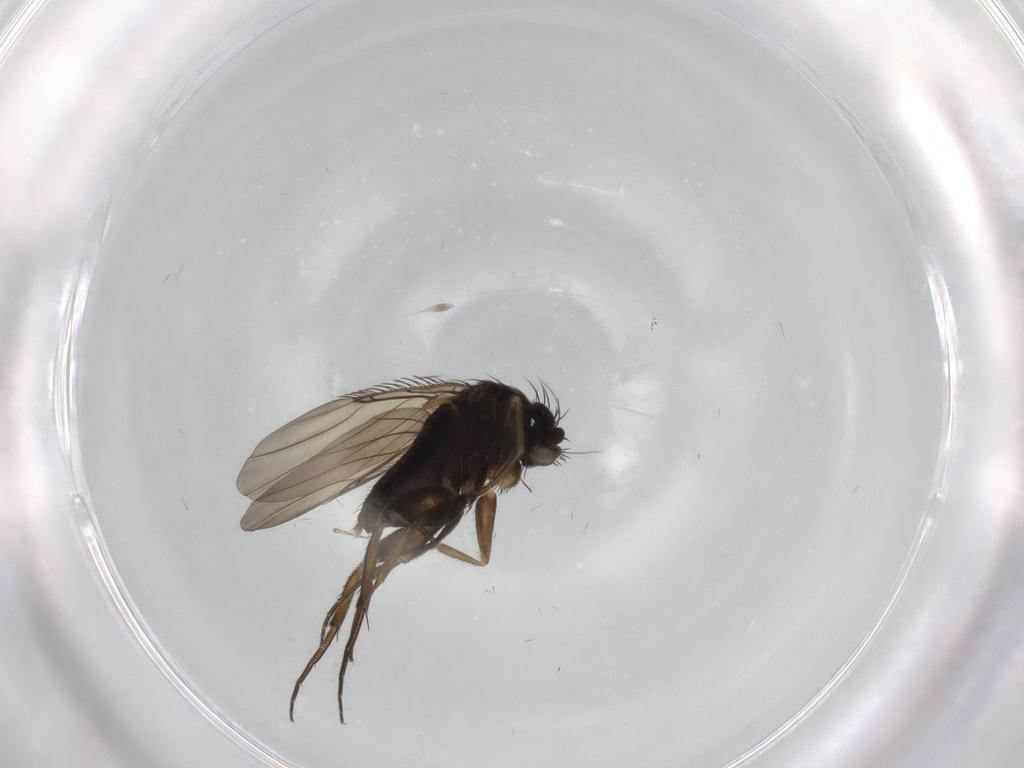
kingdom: Animalia
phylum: Arthropoda
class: Insecta
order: Diptera
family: Phoridae
